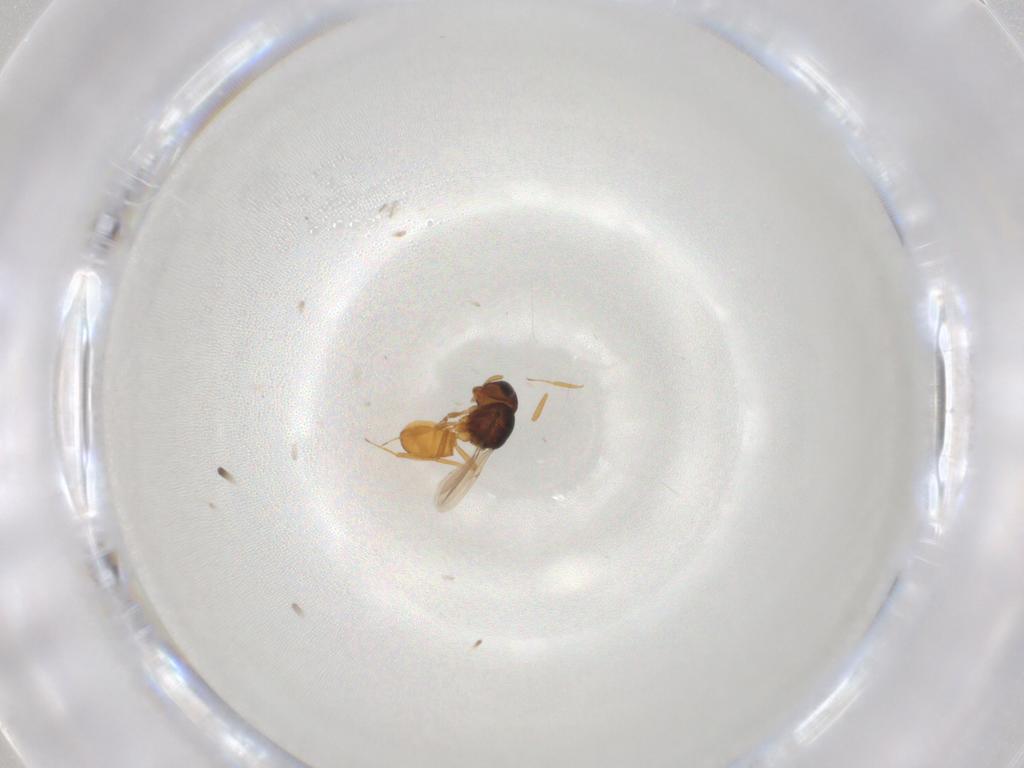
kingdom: Animalia
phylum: Arthropoda
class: Insecta
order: Hymenoptera
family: Scelionidae
